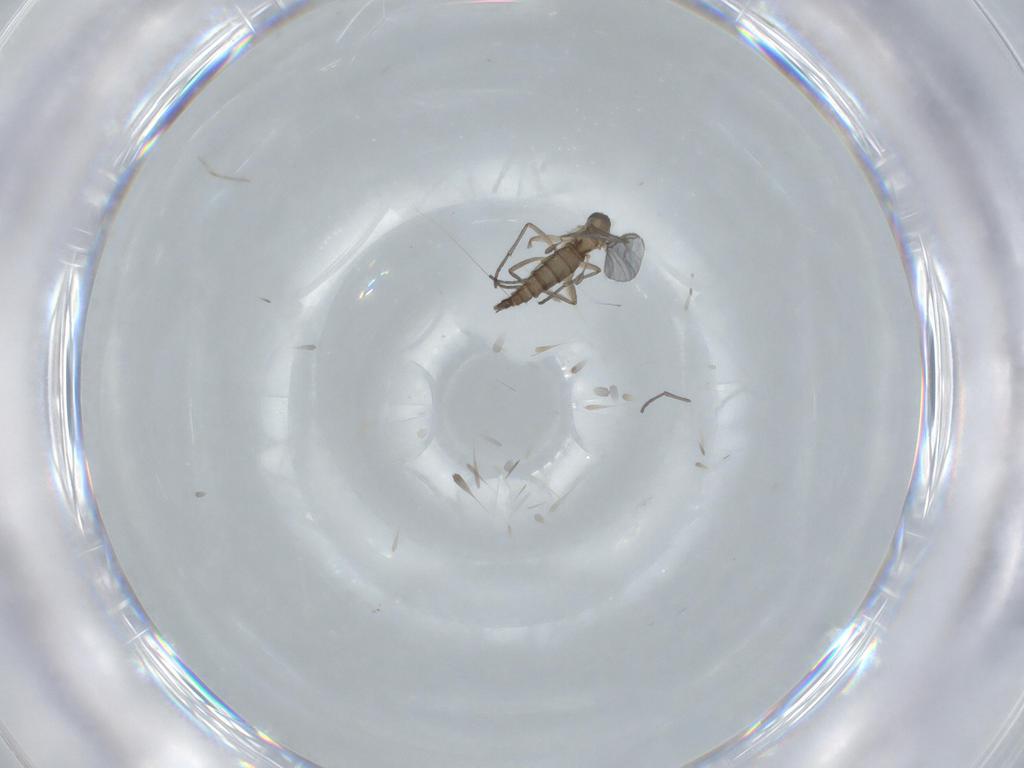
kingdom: Animalia
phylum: Arthropoda
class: Insecta
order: Diptera
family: Sciaridae
